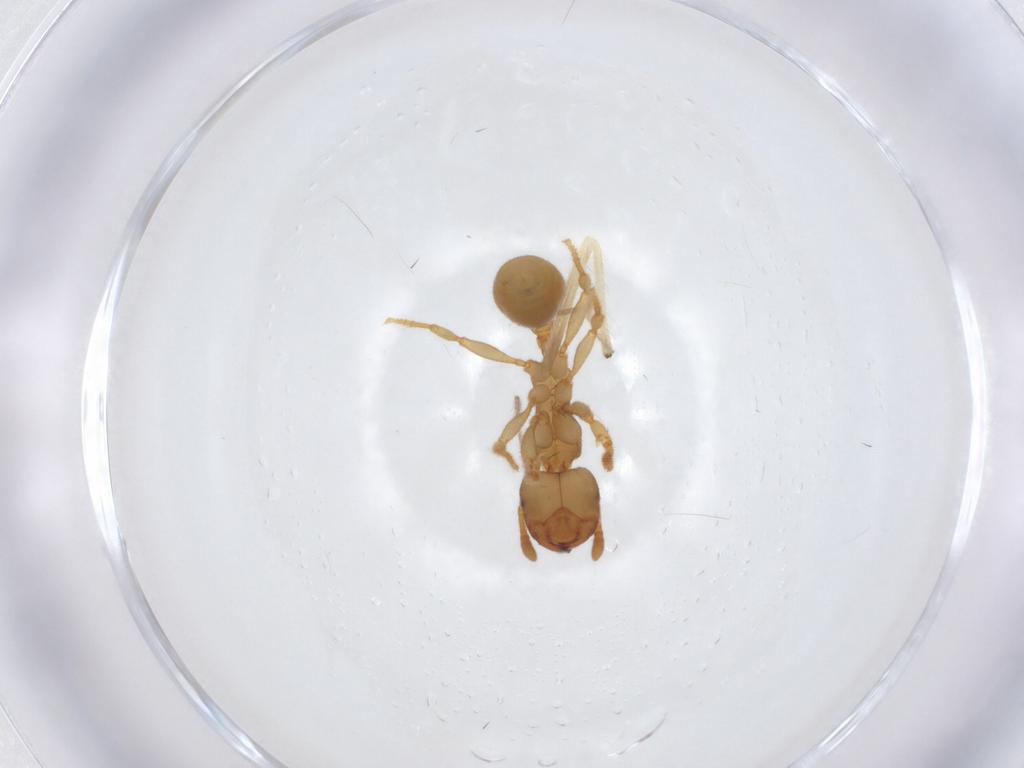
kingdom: Animalia
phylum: Arthropoda
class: Insecta
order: Hymenoptera
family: Formicidae
